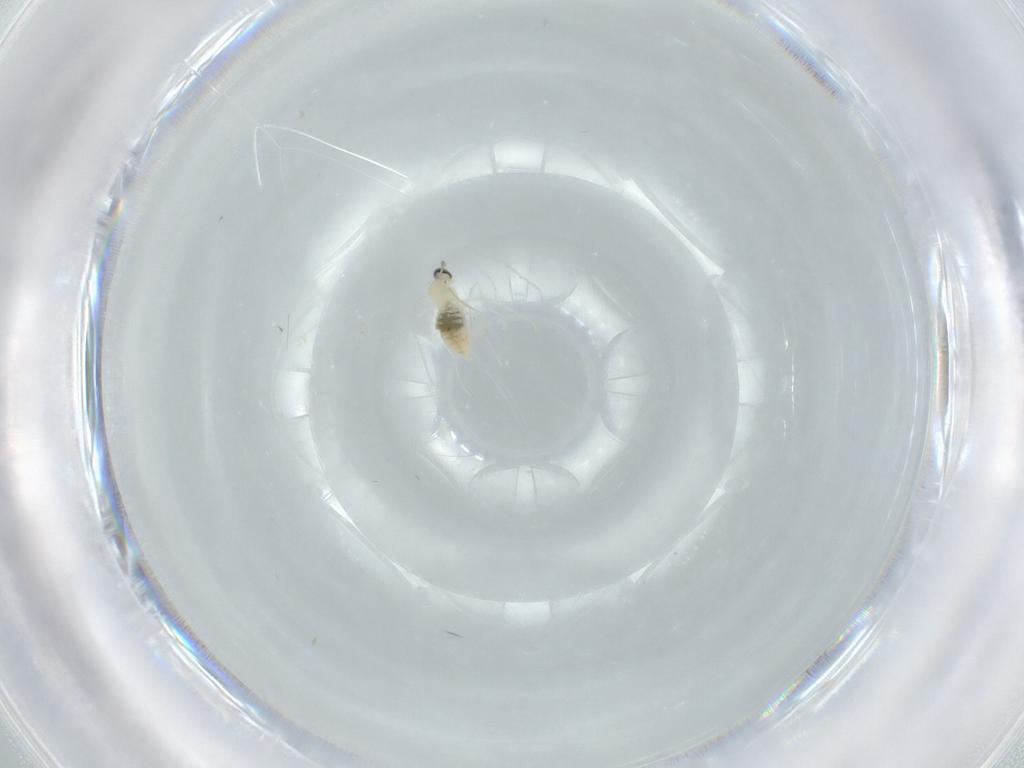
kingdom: Animalia
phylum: Arthropoda
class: Insecta
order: Diptera
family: Cecidomyiidae
